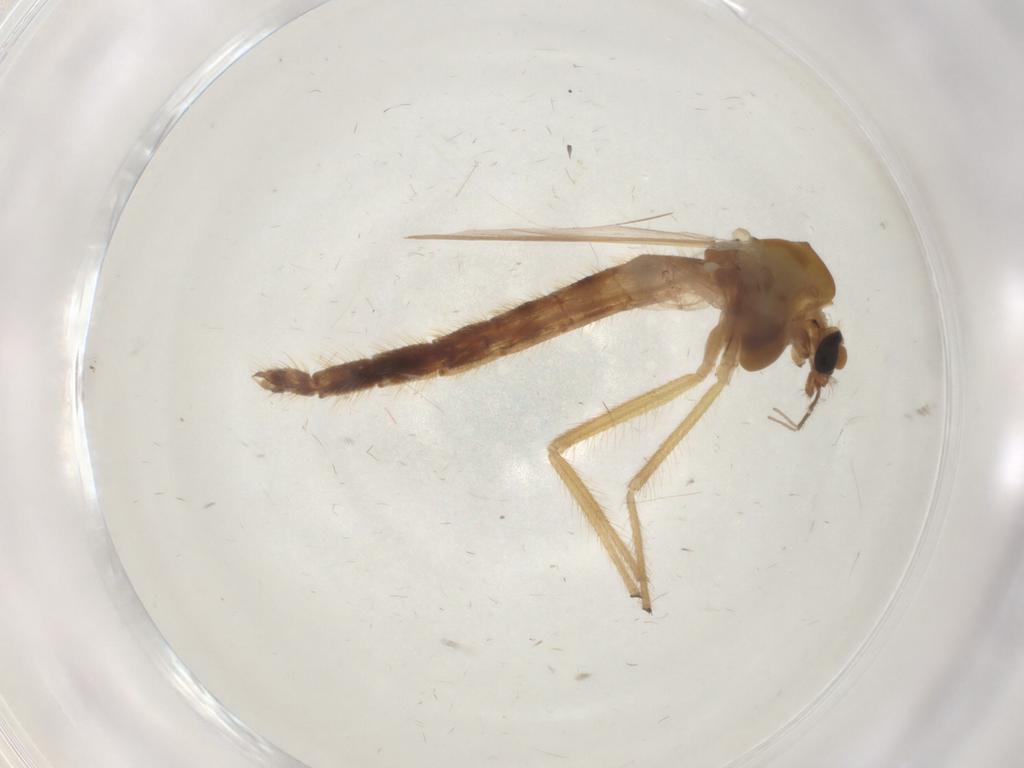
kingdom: Animalia
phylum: Arthropoda
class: Insecta
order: Diptera
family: Chironomidae
